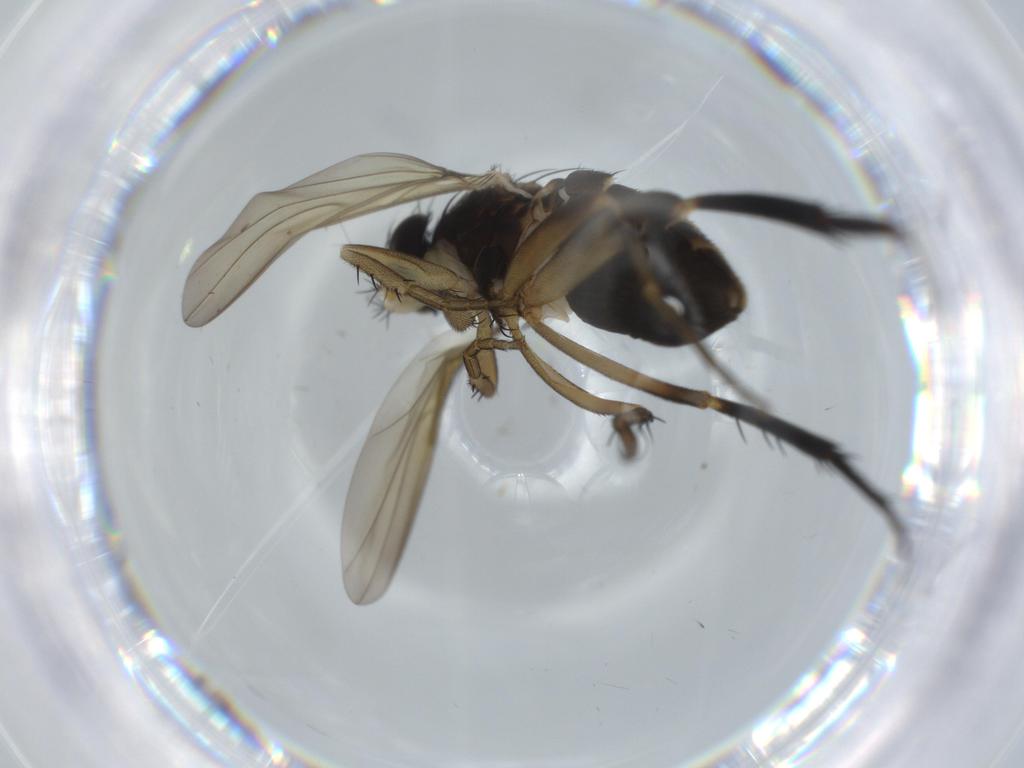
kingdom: Animalia
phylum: Arthropoda
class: Insecta
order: Diptera
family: Phoridae
